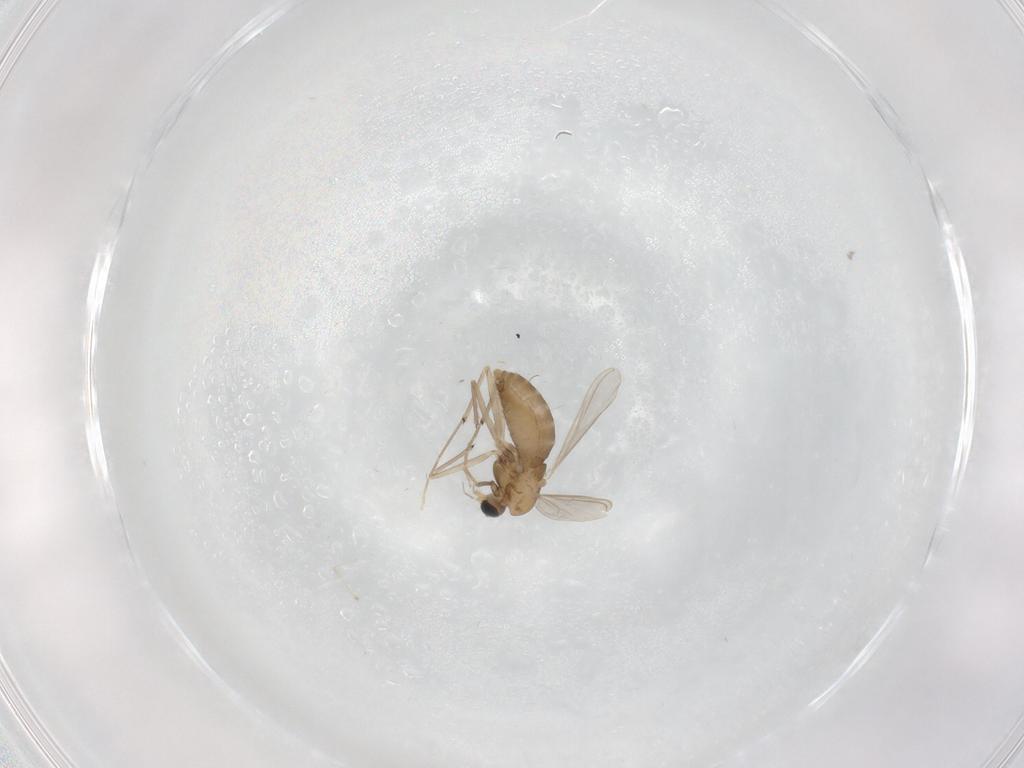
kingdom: Animalia
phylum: Arthropoda
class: Insecta
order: Diptera
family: Chironomidae
